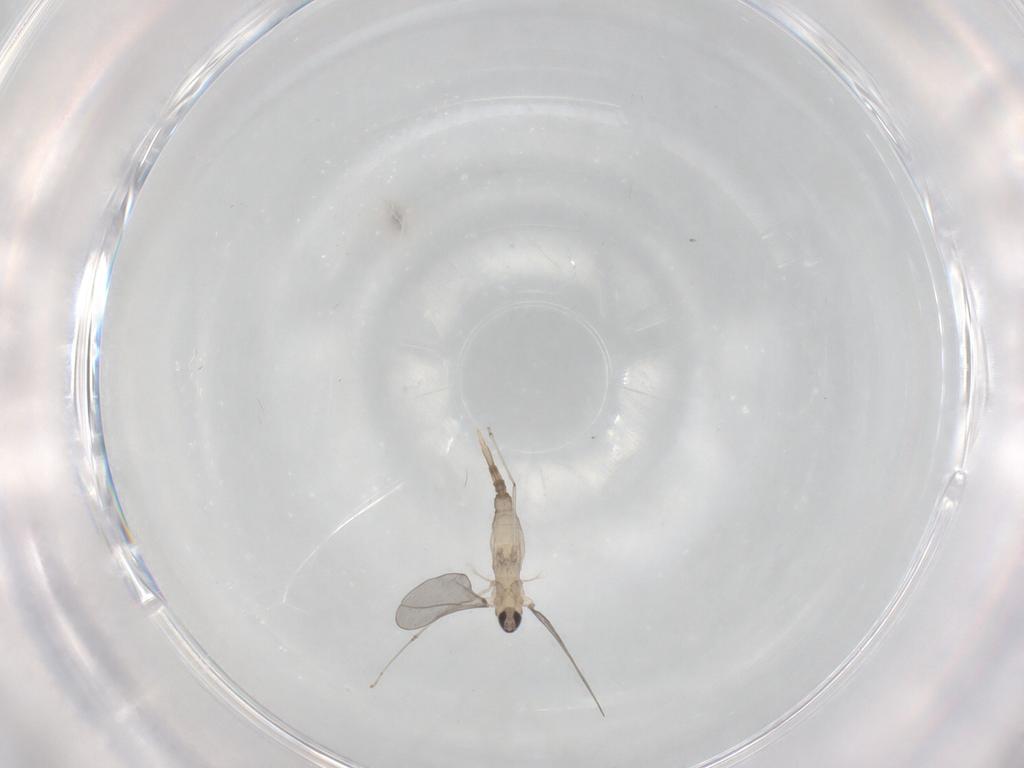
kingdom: Animalia
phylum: Arthropoda
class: Insecta
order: Diptera
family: Cecidomyiidae
